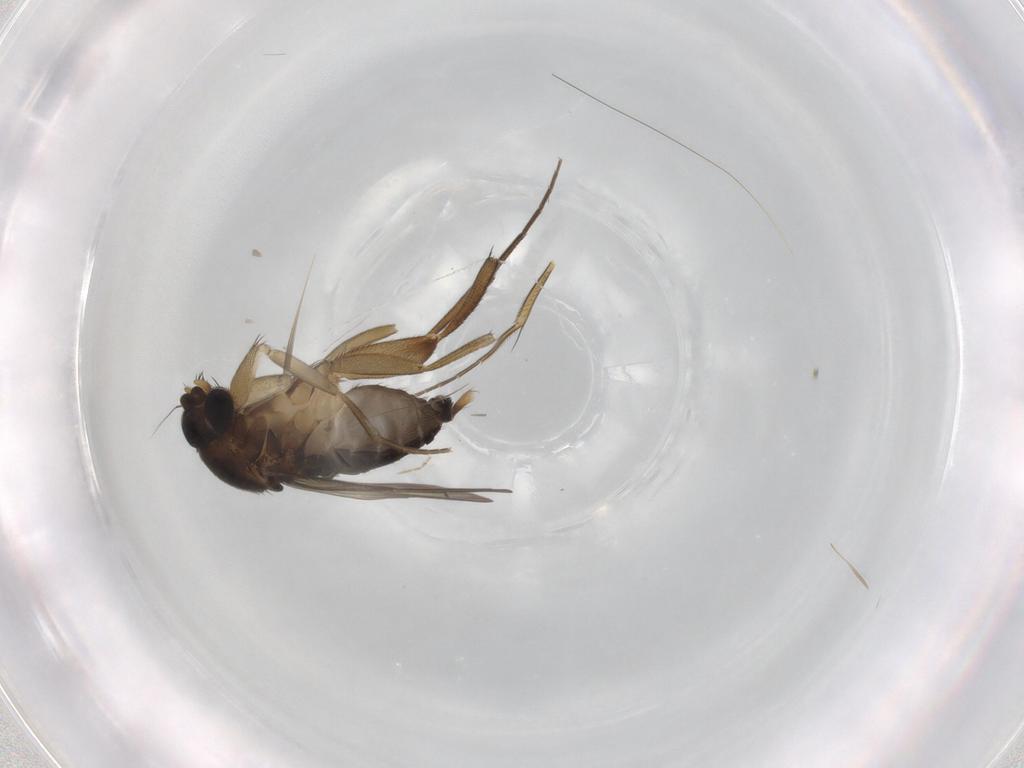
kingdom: Animalia
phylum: Arthropoda
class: Insecta
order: Diptera
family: Phoridae
